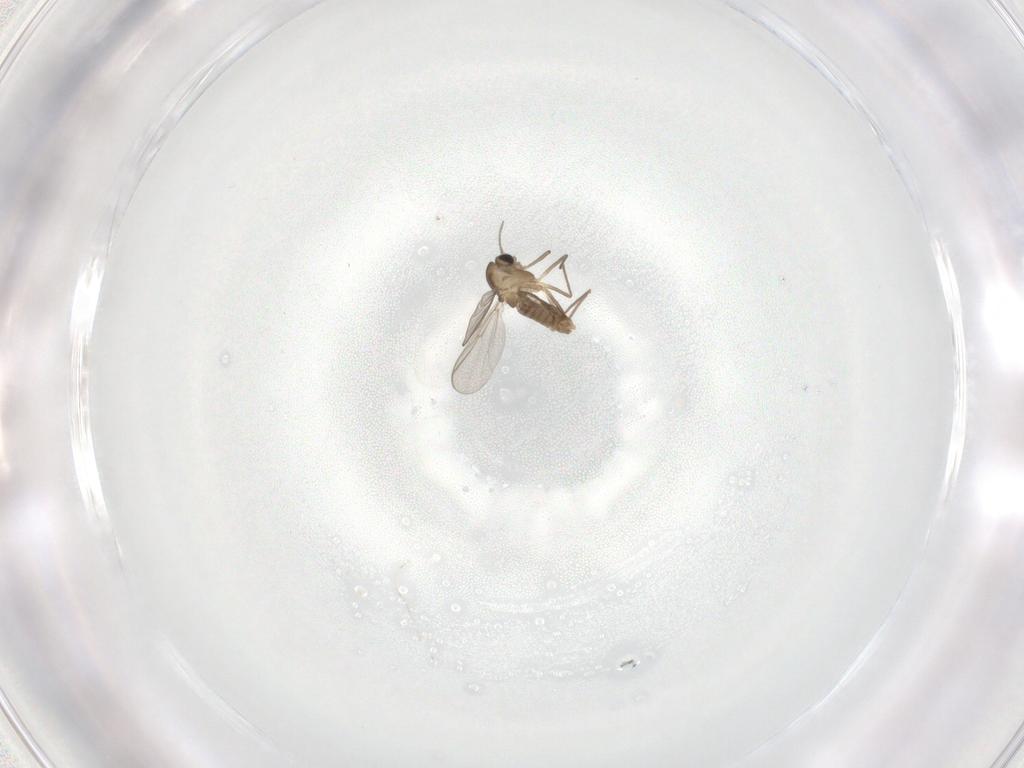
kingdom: Animalia
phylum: Arthropoda
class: Insecta
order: Diptera
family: Chironomidae
